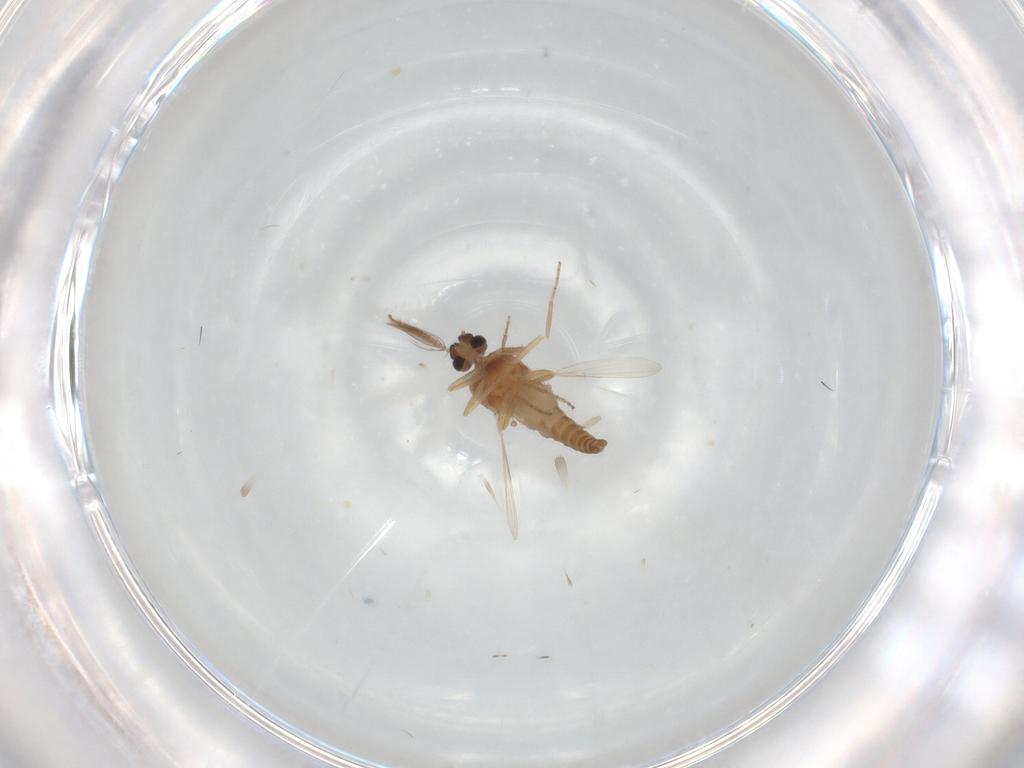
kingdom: Animalia
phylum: Arthropoda
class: Insecta
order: Diptera
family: Ceratopogonidae
